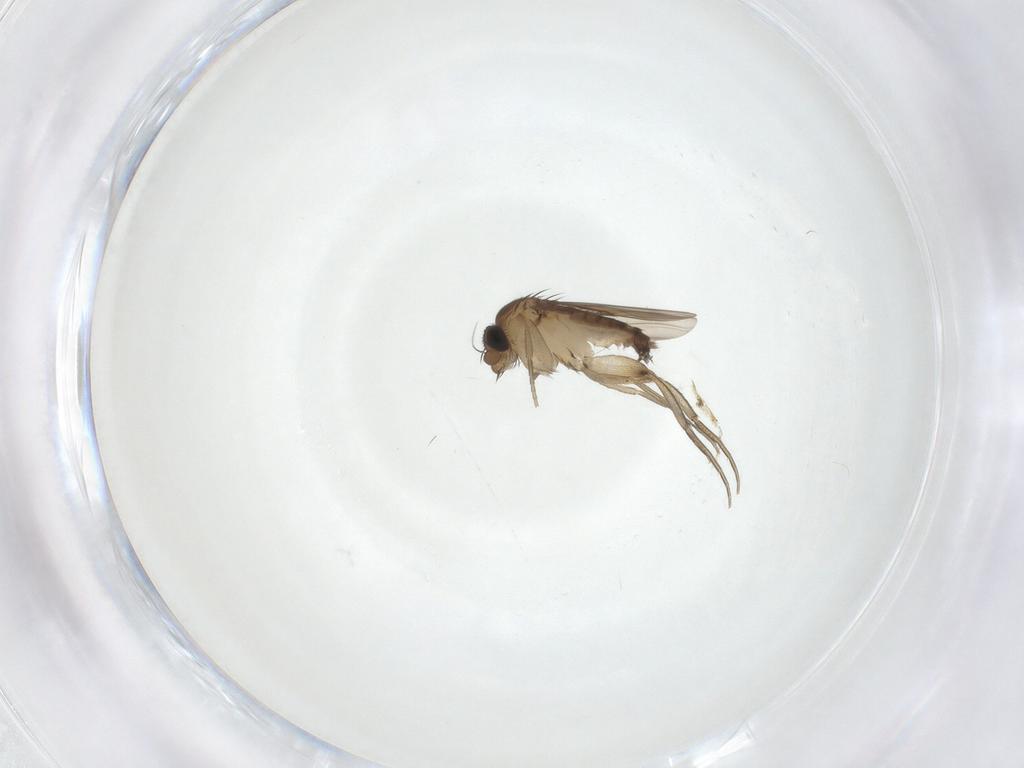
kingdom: Animalia
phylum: Arthropoda
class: Insecta
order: Diptera
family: Phoridae
